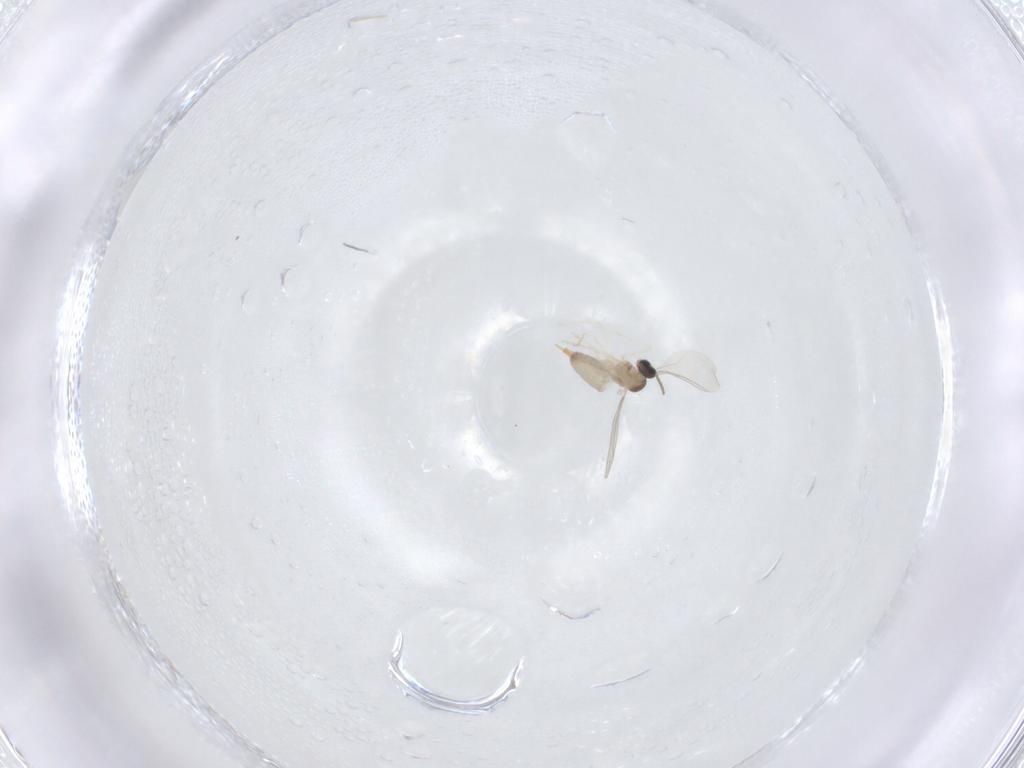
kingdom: Animalia
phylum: Arthropoda
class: Insecta
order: Diptera
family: Cecidomyiidae
